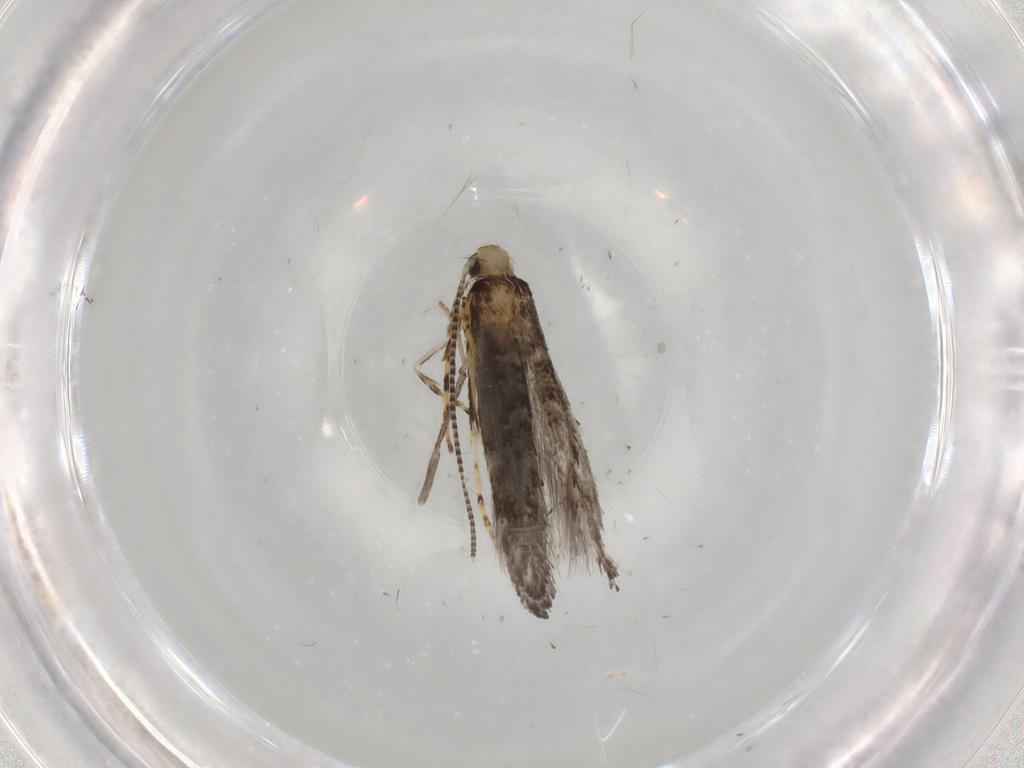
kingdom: Animalia
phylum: Arthropoda
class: Insecta
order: Lepidoptera
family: Gracillariidae
